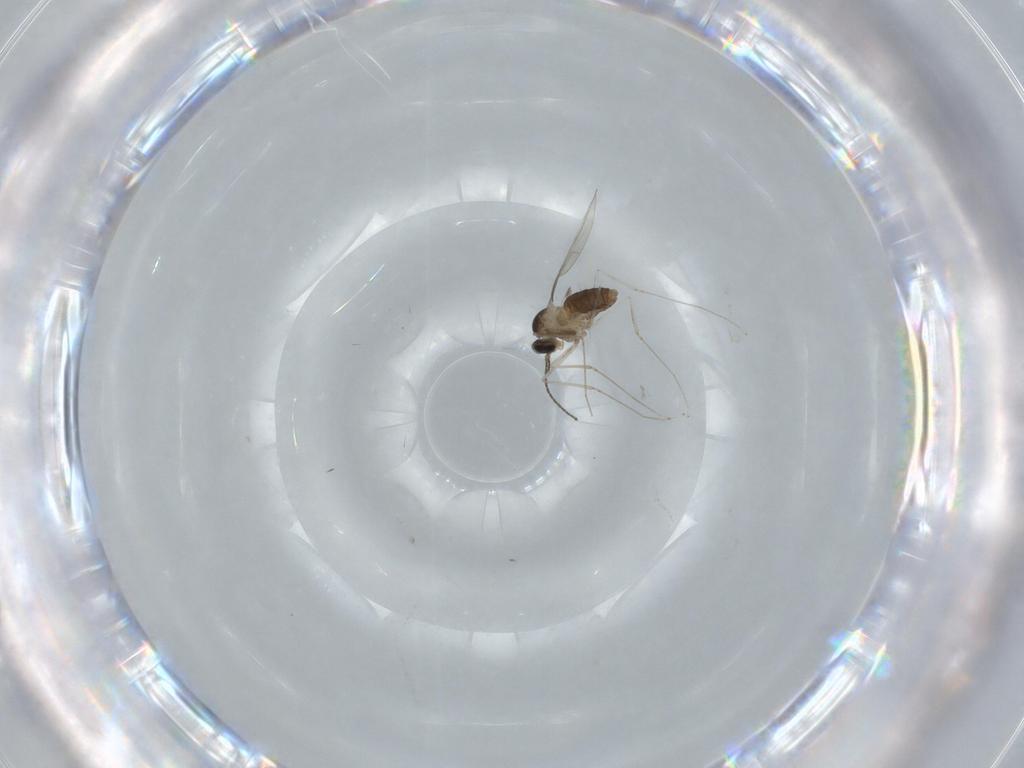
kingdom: Animalia
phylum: Arthropoda
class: Insecta
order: Diptera
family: Cecidomyiidae
